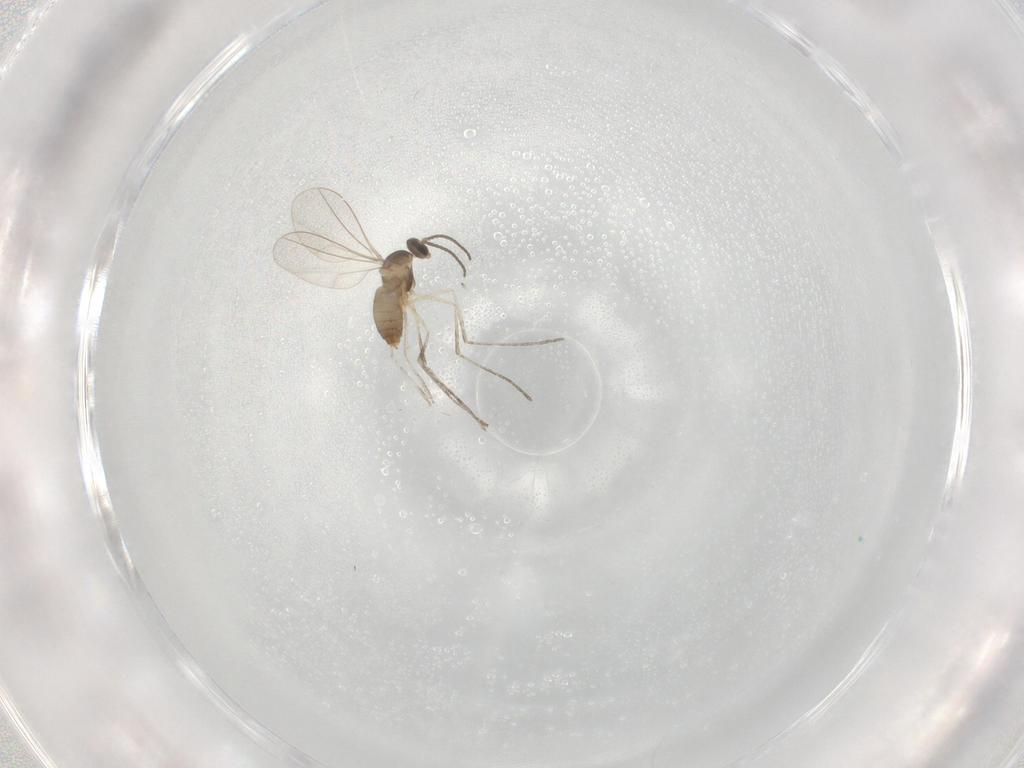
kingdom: Animalia
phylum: Arthropoda
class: Insecta
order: Diptera
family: Cecidomyiidae
